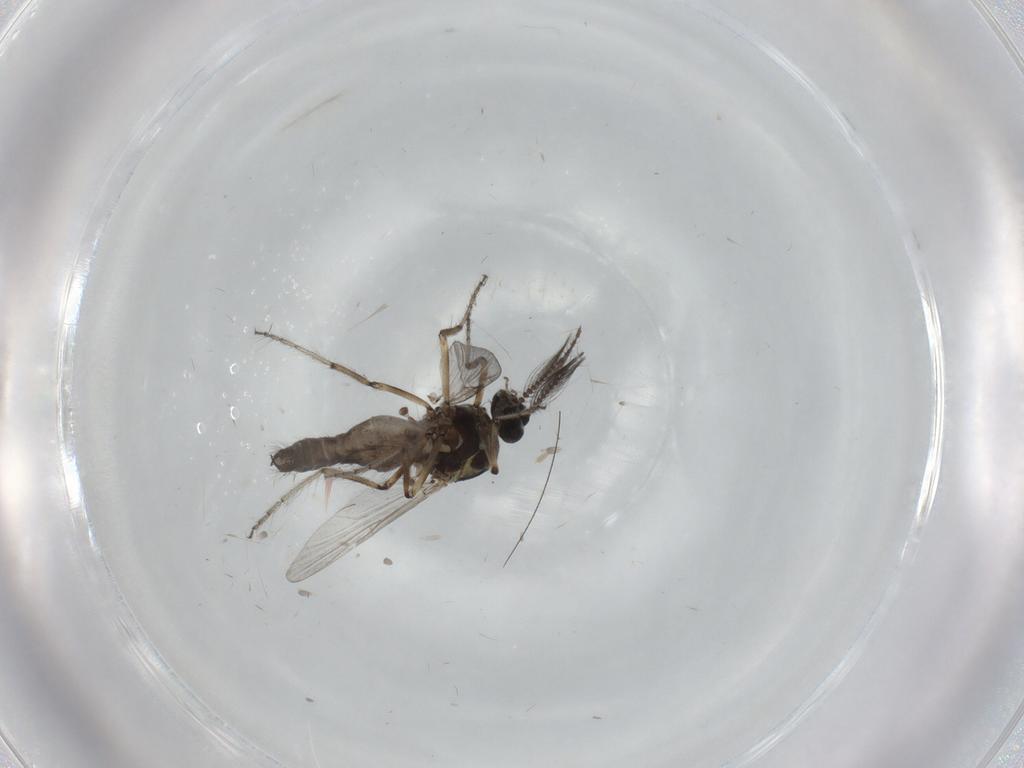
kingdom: Animalia
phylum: Arthropoda
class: Insecta
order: Diptera
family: Ceratopogonidae
